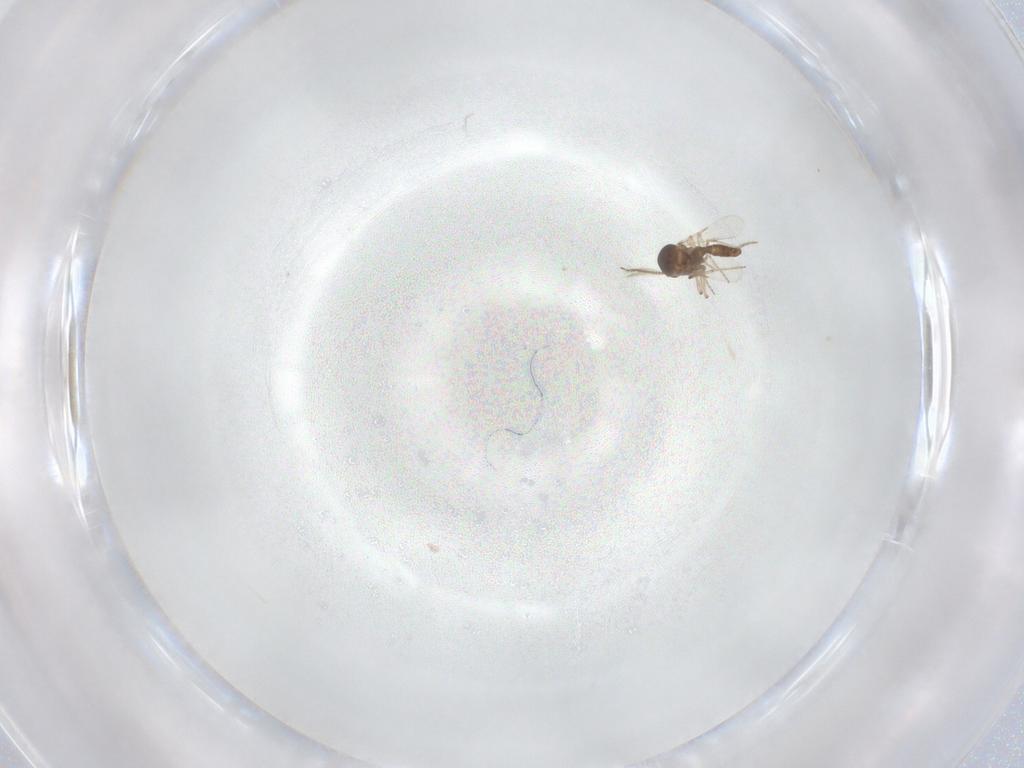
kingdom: Animalia
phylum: Arthropoda
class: Insecta
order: Diptera
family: Ceratopogonidae
